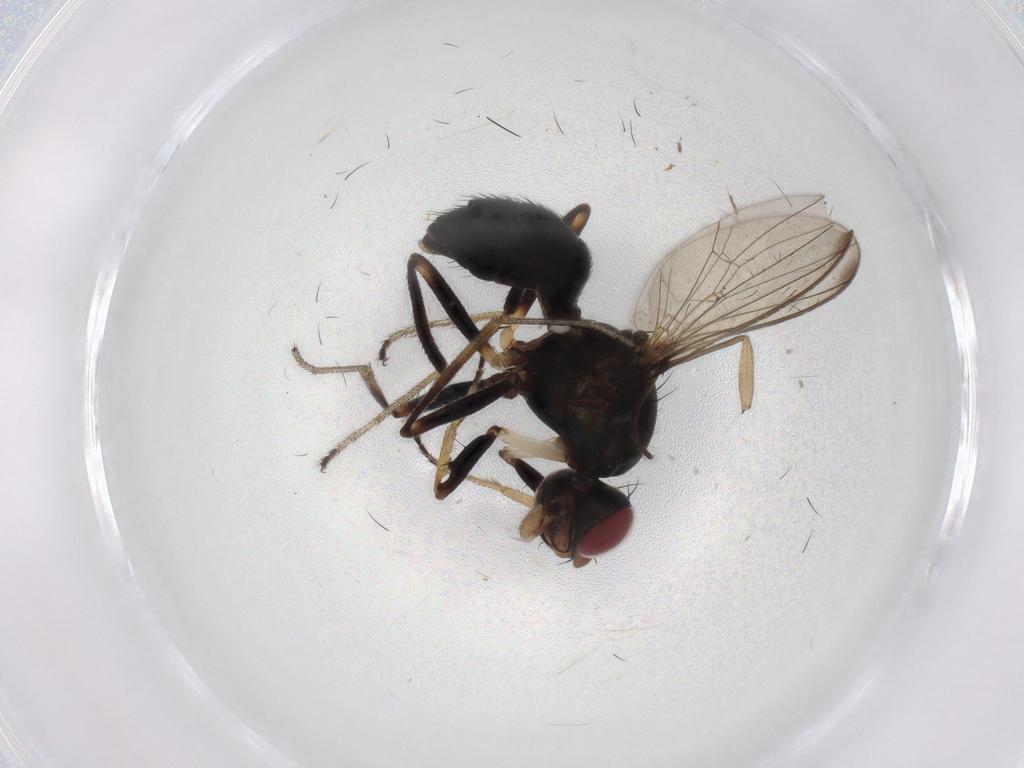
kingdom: Animalia
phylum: Arthropoda
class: Insecta
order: Diptera
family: Sepsidae
